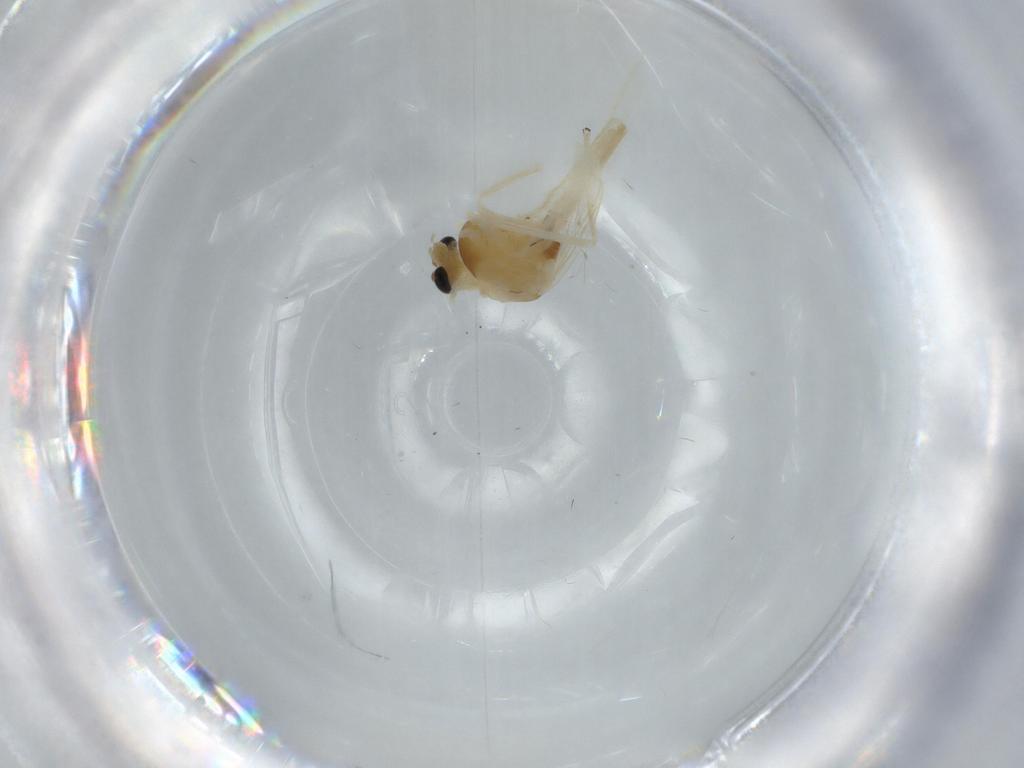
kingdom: Animalia
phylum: Arthropoda
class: Insecta
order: Diptera
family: Chloropidae
